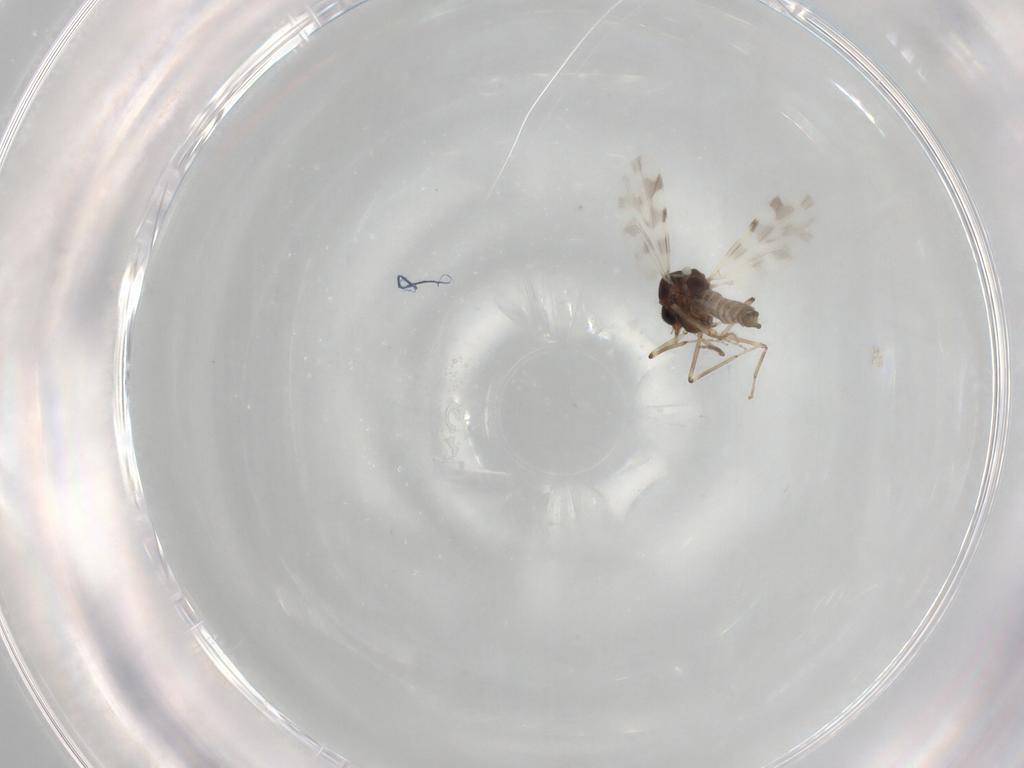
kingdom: Animalia
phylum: Arthropoda
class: Insecta
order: Diptera
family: Ceratopogonidae
